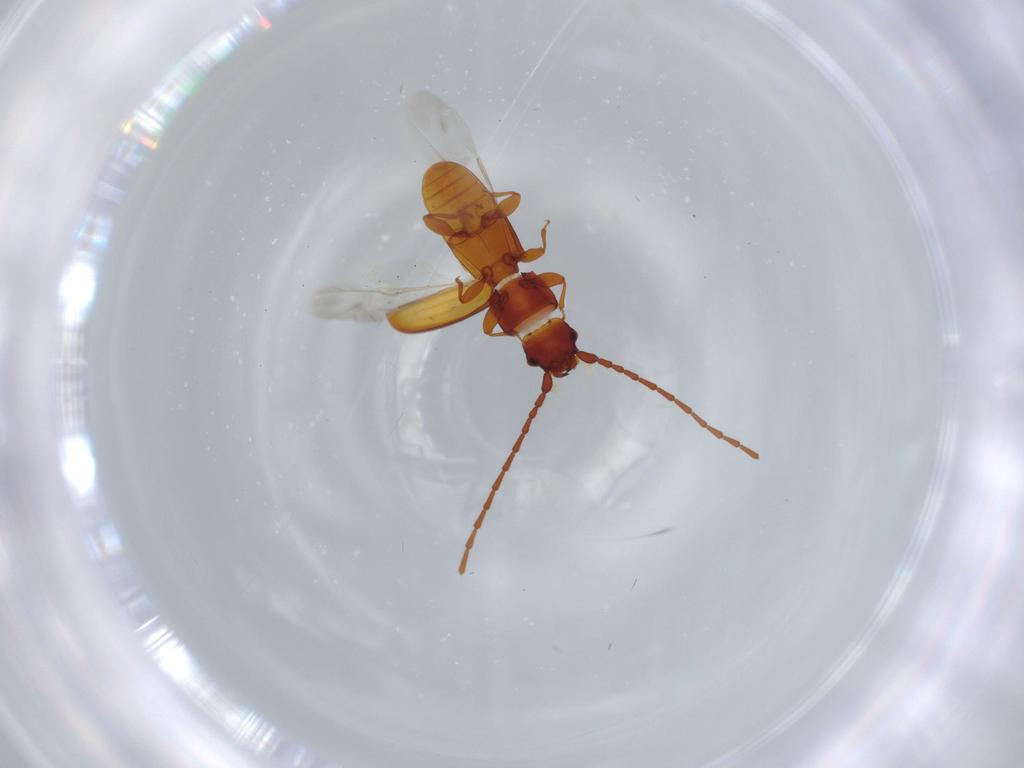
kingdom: Animalia
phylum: Arthropoda
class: Insecta
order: Coleoptera
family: Laemophloeidae
